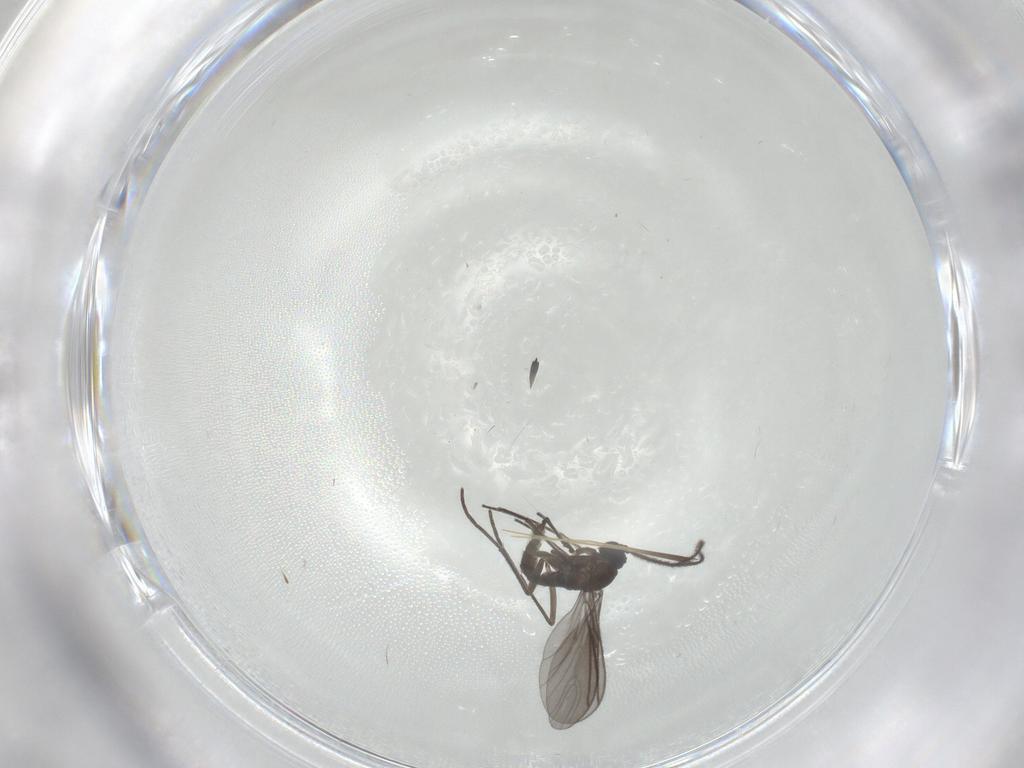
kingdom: Animalia
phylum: Arthropoda
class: Insecta
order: Diptera
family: Sciaridae
